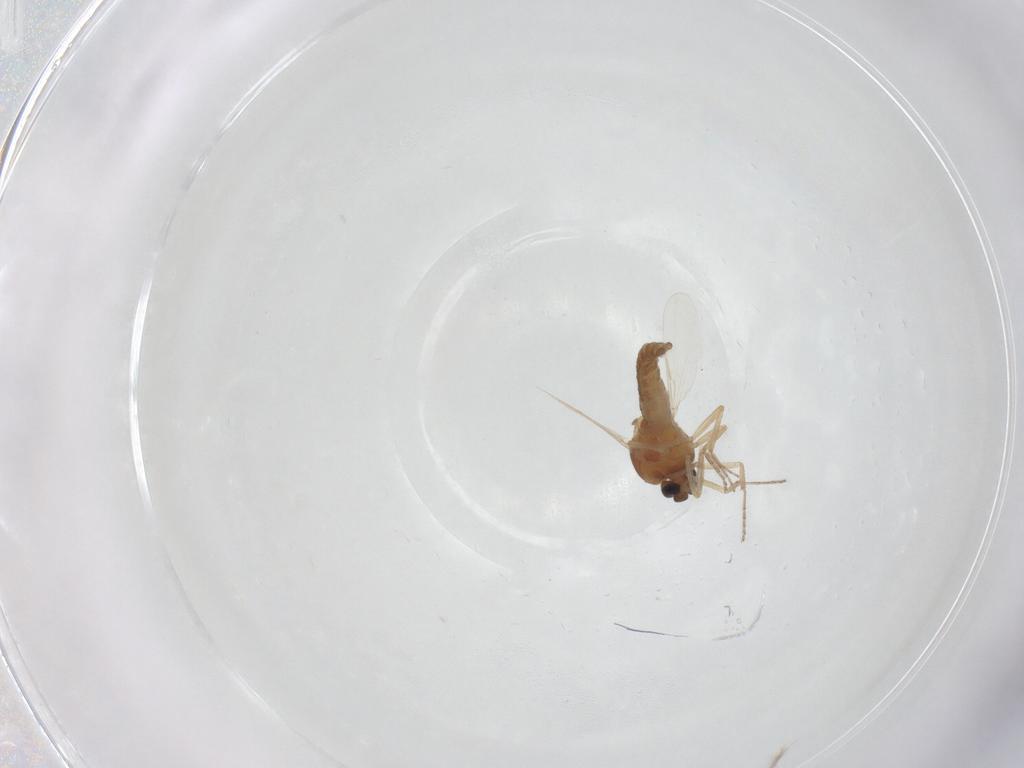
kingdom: Animalia
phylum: Arthropoda
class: Insecta
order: Diptera
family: Ceratopogonidae
